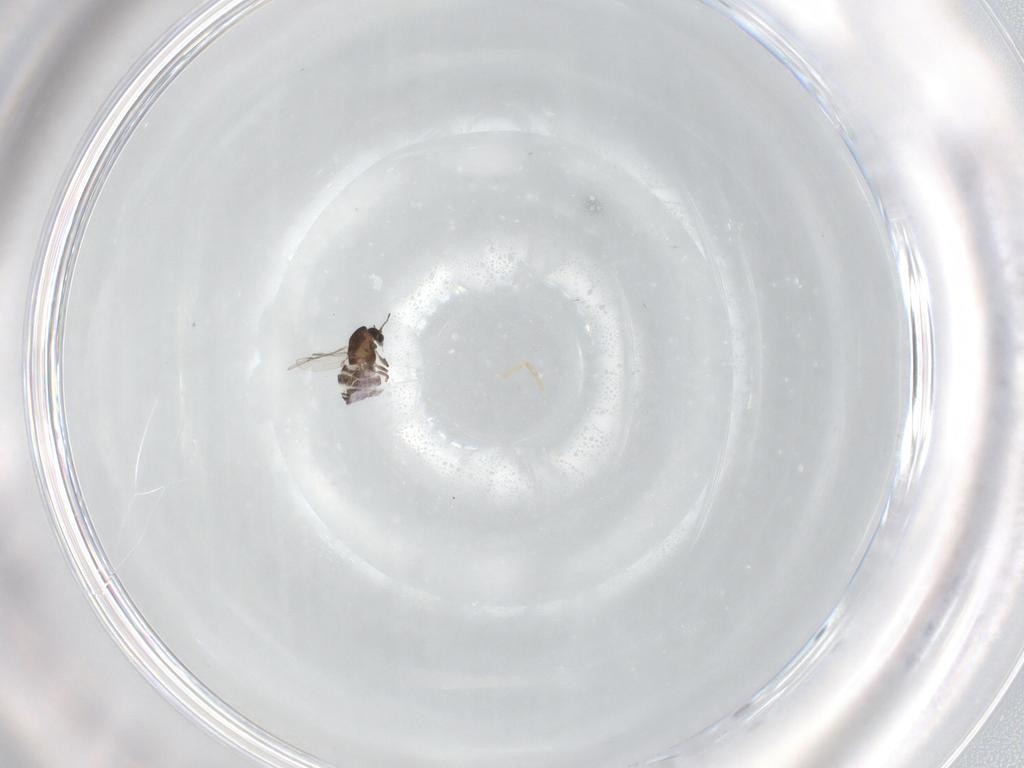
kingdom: Animalia
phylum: Arthropoda
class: Insecta
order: Diptera
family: Chironomidae
